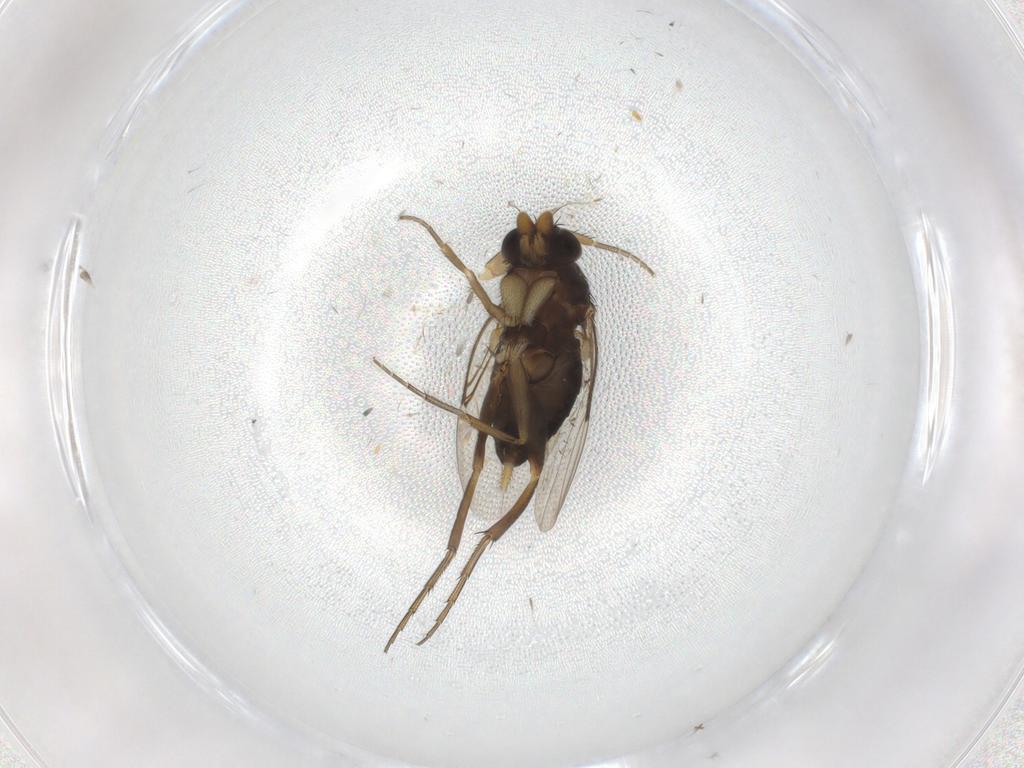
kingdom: Animalia
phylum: Arthropoda
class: Insecta
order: Diptera
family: Phoridae
